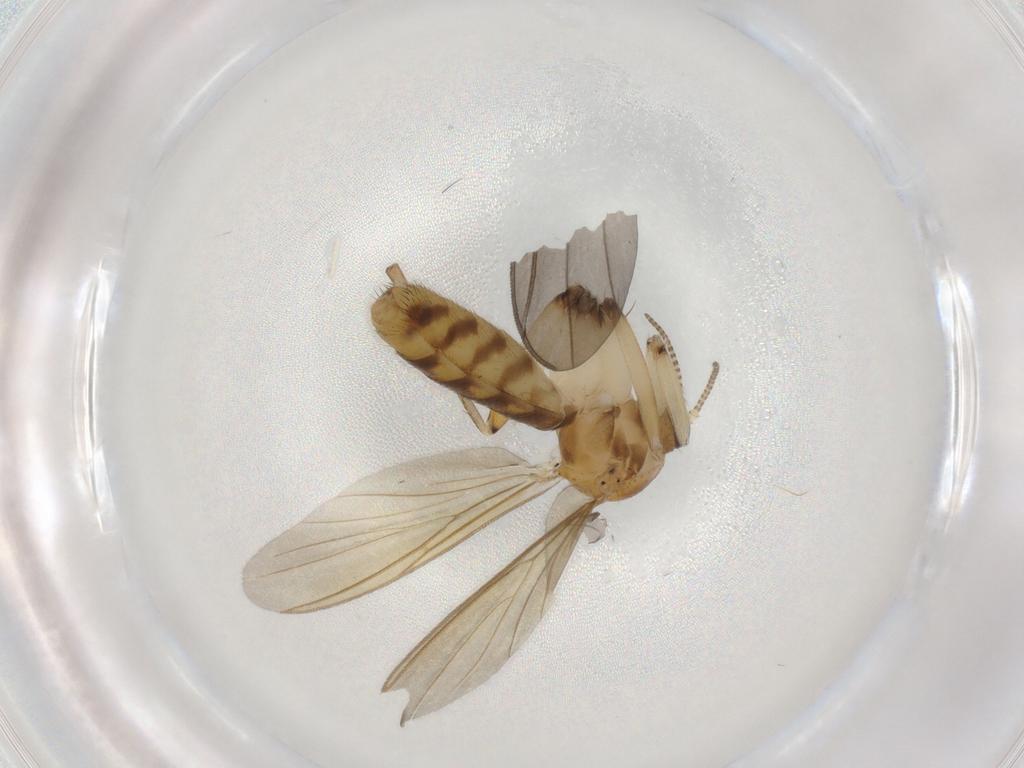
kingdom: Animalia
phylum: Arthropoda
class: Insecta
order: Diptera
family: Mycetophilidae
